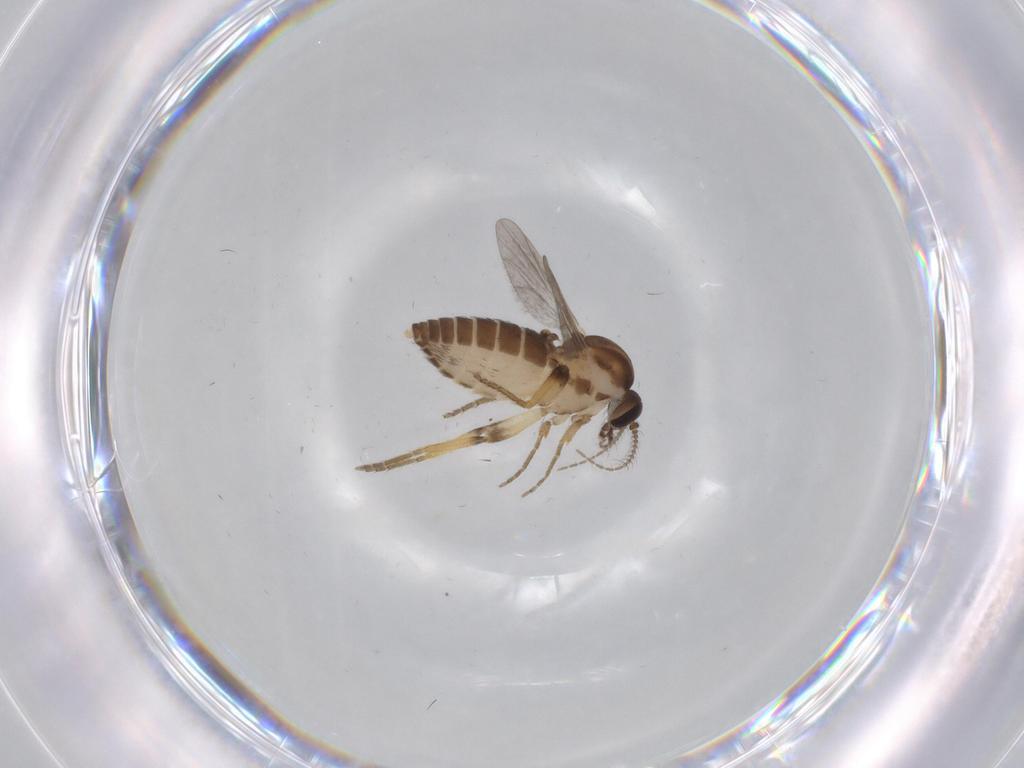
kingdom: Animalia
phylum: Arthropoda
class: Insecta
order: Diptera
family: Ceratopogonidae
